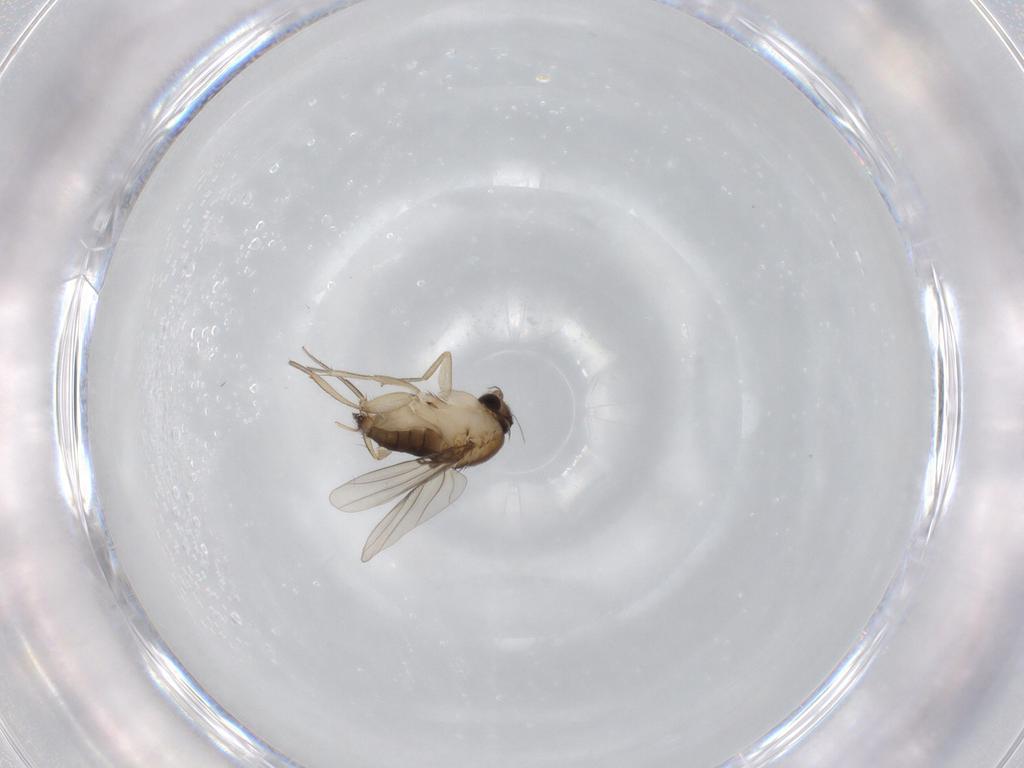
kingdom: Animalia
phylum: Arthropoda
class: Insecta
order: Diptera
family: Phoridae
